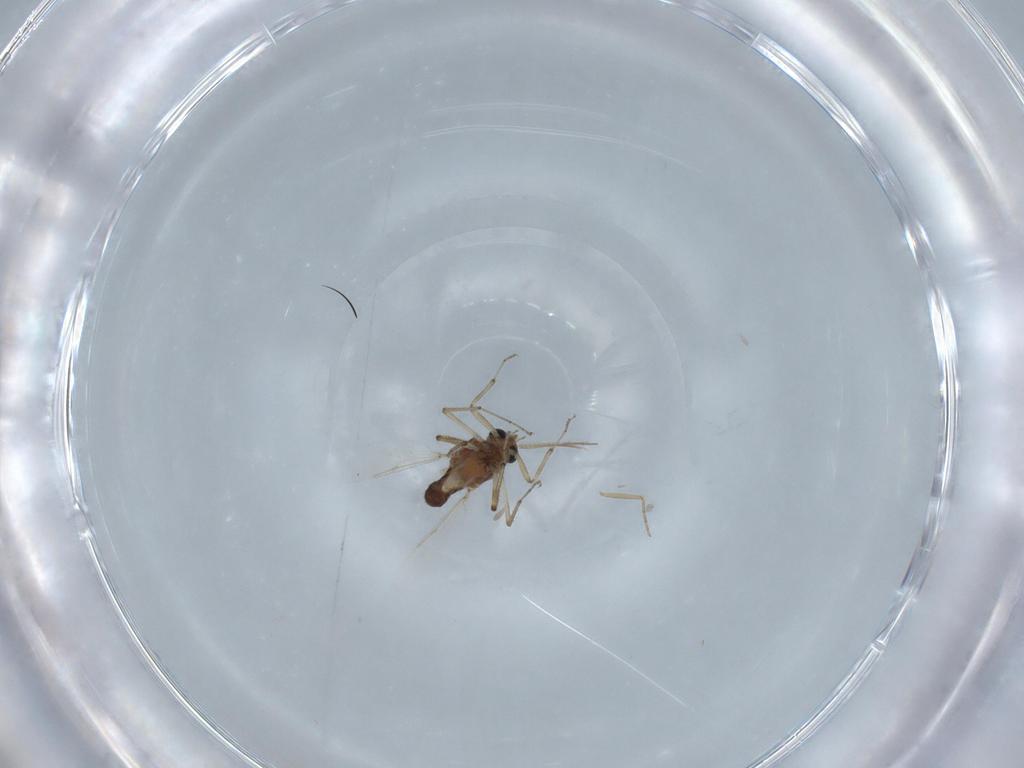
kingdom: Animalia
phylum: Arthropoda
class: Insecta
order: Diptera
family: Ceratopogonidae
